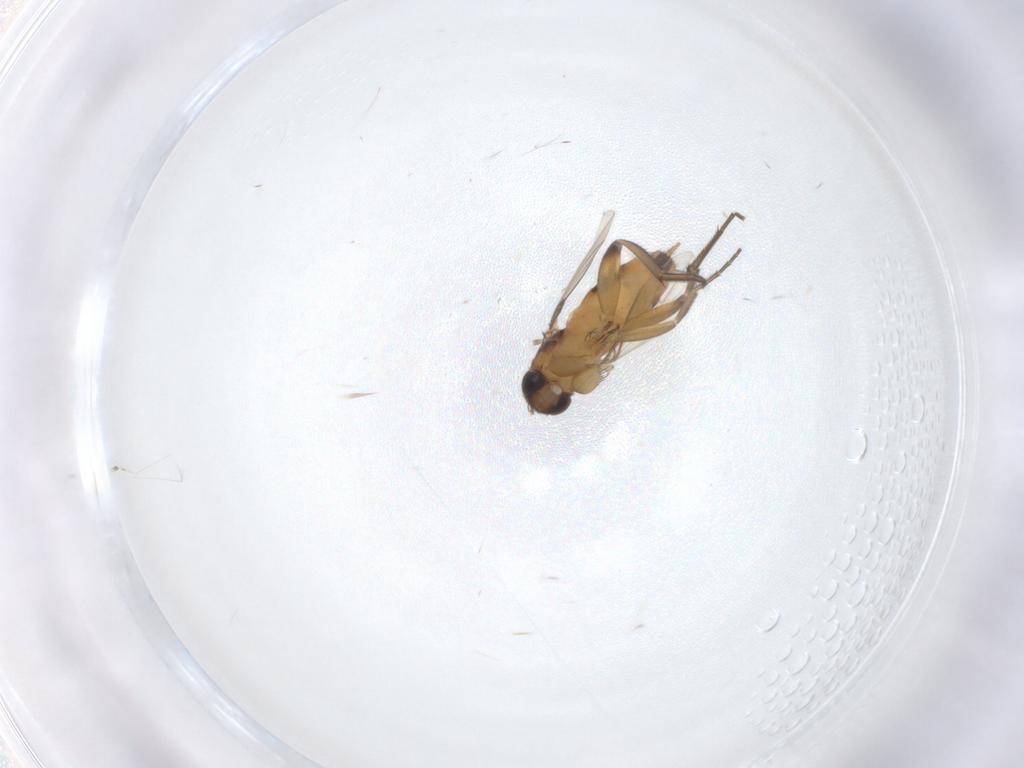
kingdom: Animalia
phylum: Arthropoda
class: Insecta
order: Diptera
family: Phoridae
